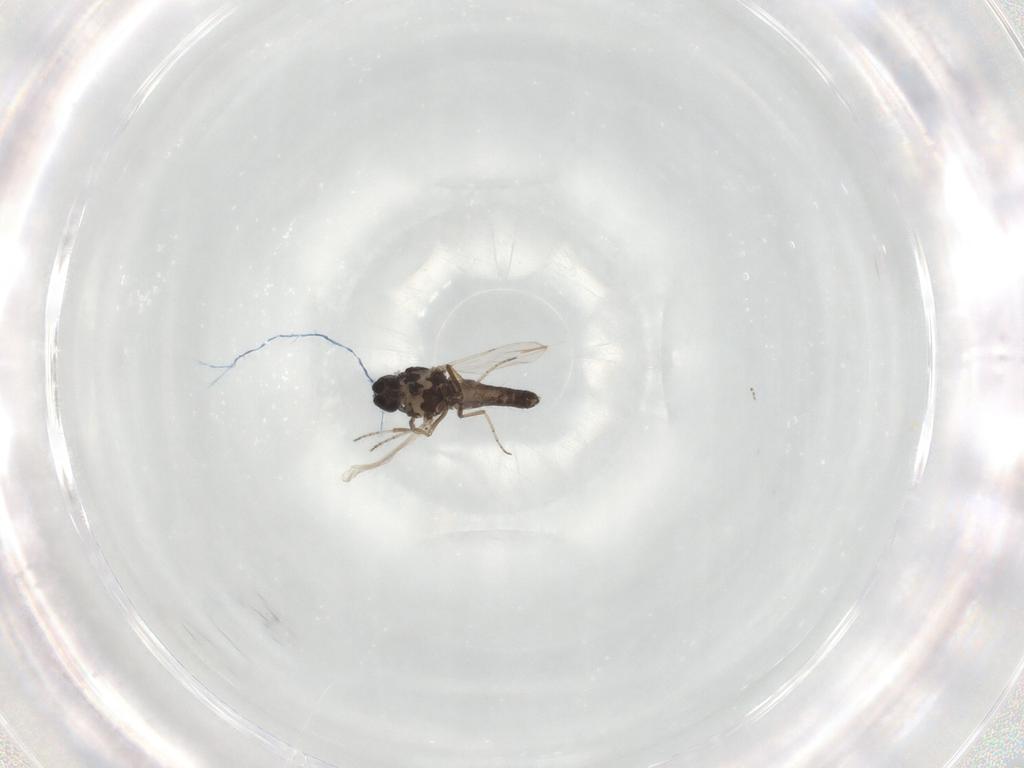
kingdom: Animalia
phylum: Arthropoda
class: Insecta
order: Diptera
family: Ceratopogonidae
